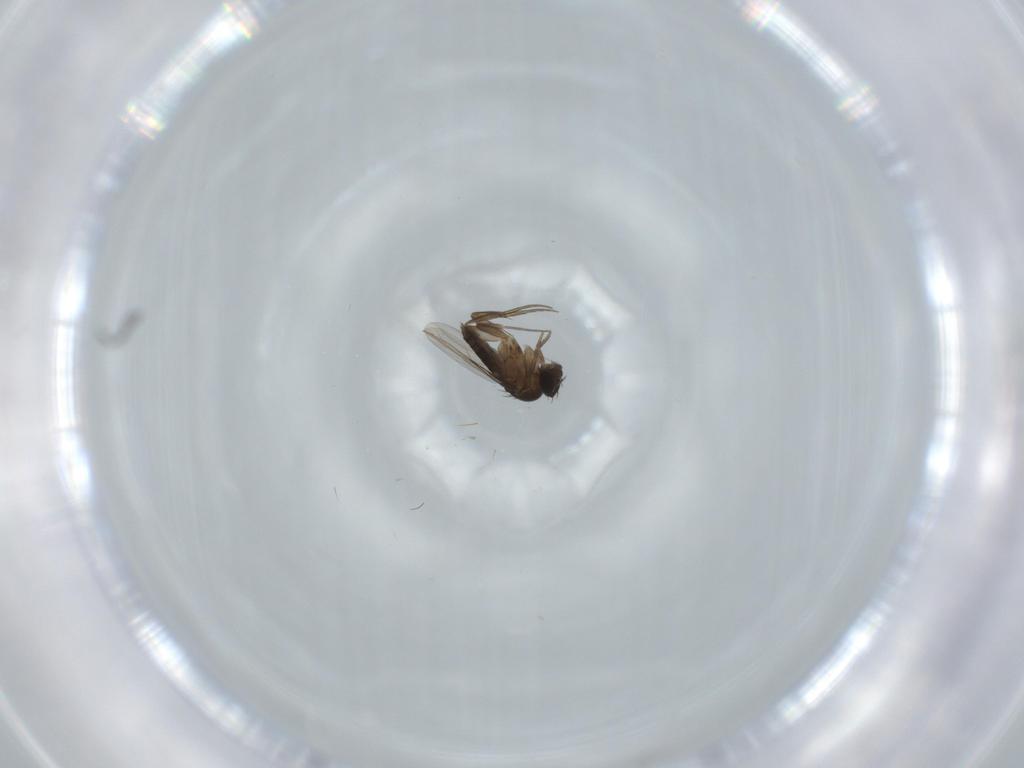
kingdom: Animalia
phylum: Arthropoda
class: Insecta
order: Diptera
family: Phoridae
